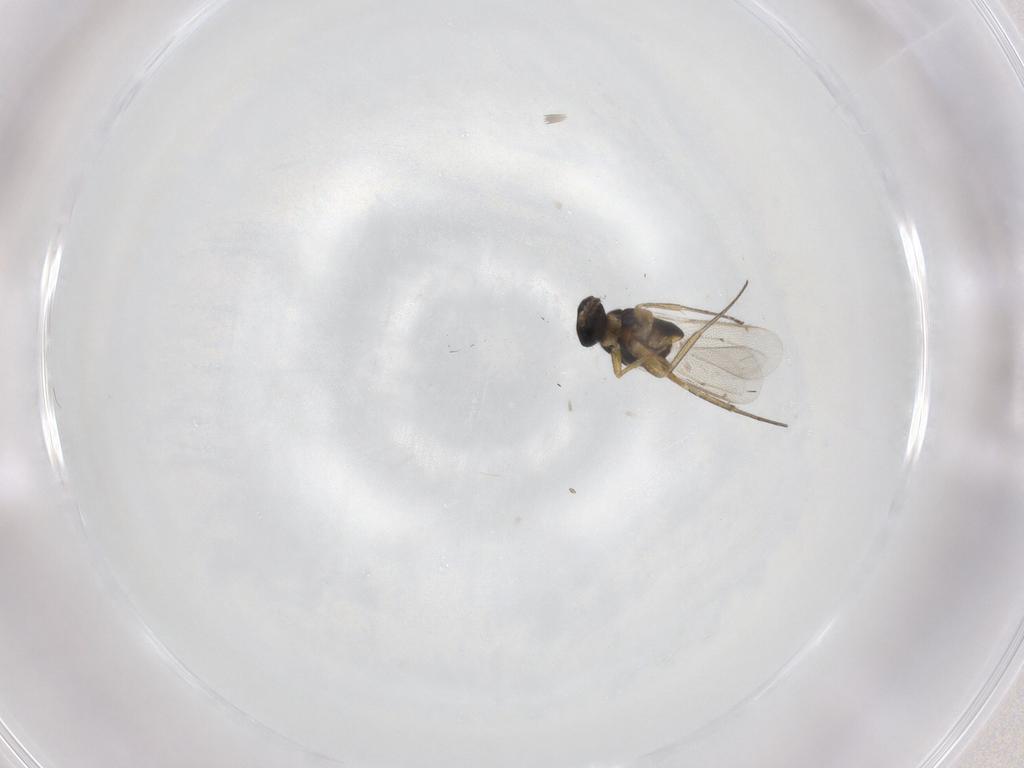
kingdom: Animalia
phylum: Arthropoda
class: Insecta
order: Hymenoptera
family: Eulophidae
